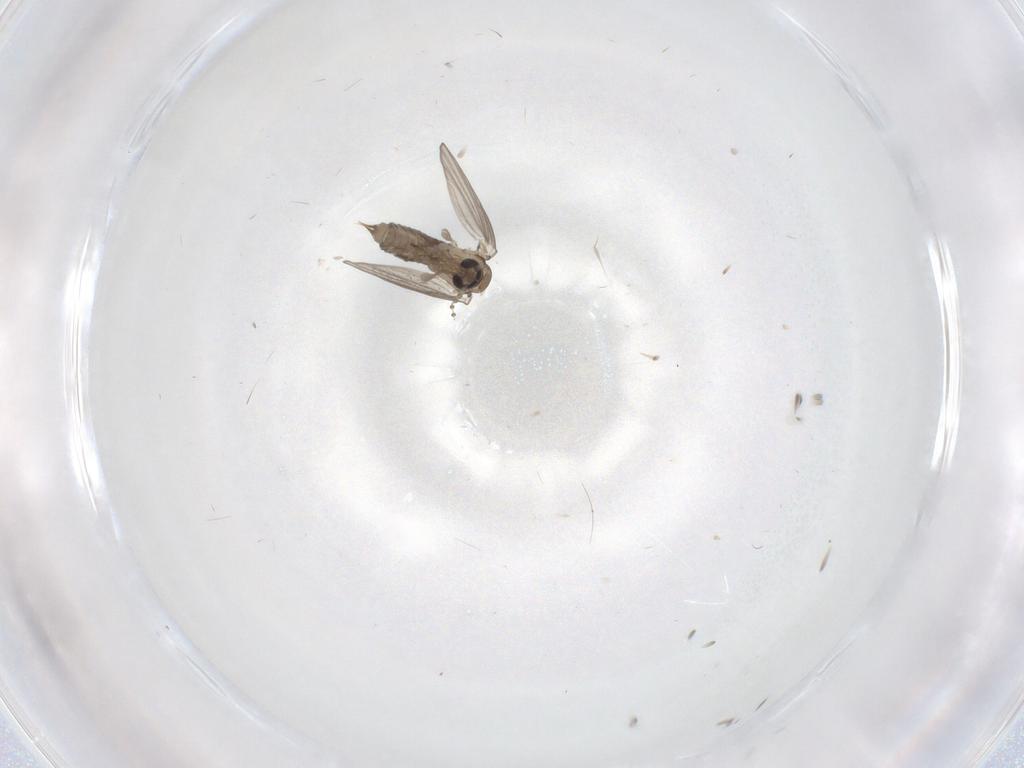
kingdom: Animalia
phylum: Arthropoda
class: Insecta
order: Diptera
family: Psychodidae
